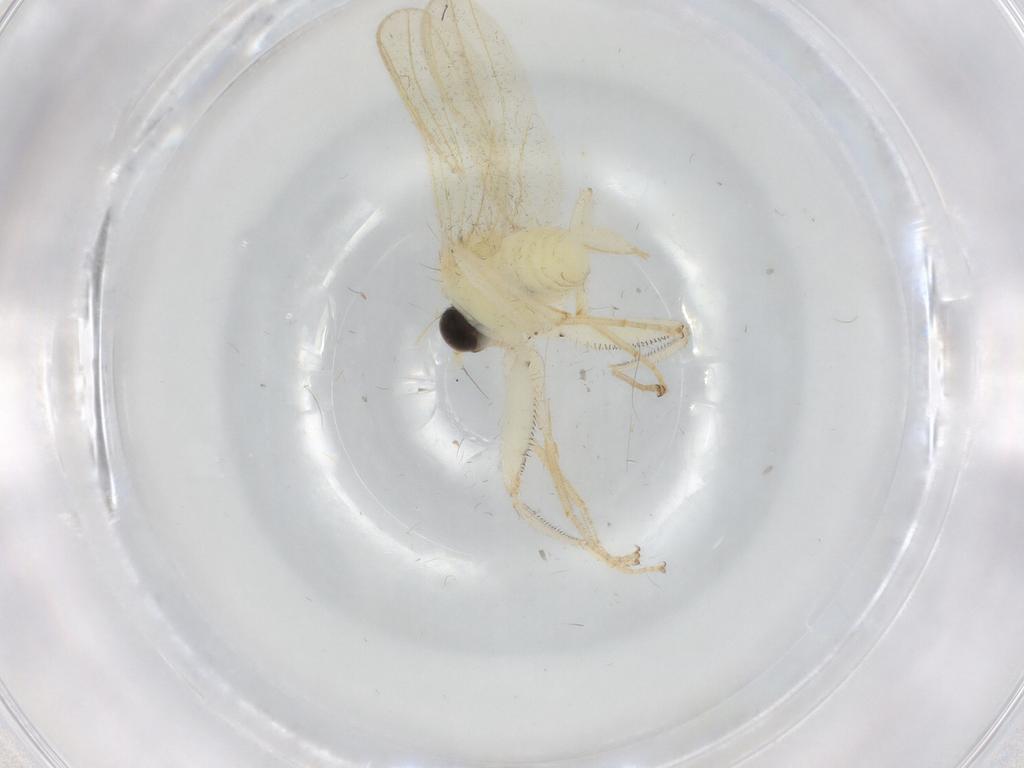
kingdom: Animalia
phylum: Arthropoda
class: Insecta
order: Diptera
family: Hybotidae
